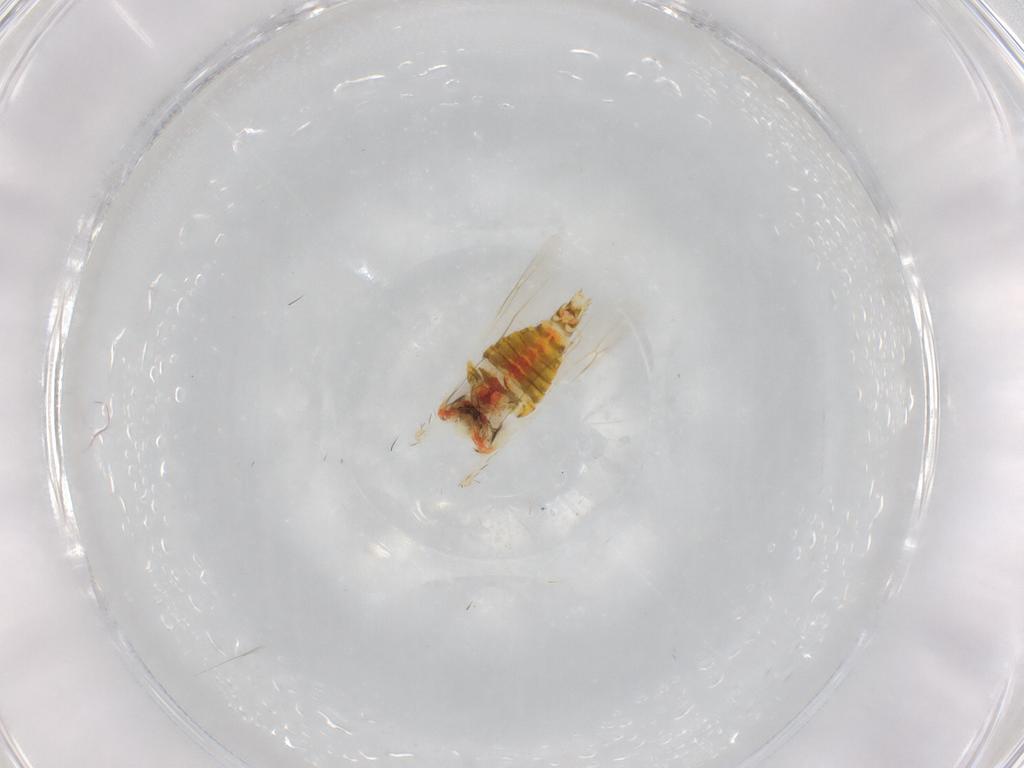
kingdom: Animalia
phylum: Arthropoda
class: Insecta
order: Hemiptera
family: Cicadellidae
